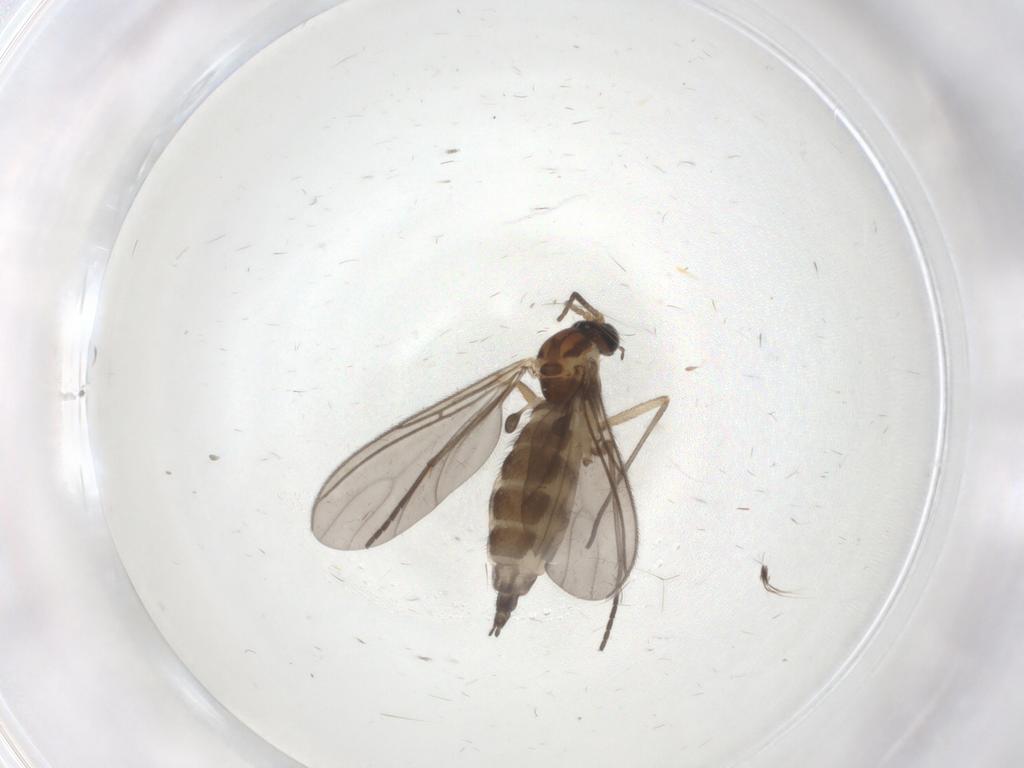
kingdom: Animalia
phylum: Arthropoda
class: Insecta
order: Diptera
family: Sciaridae
